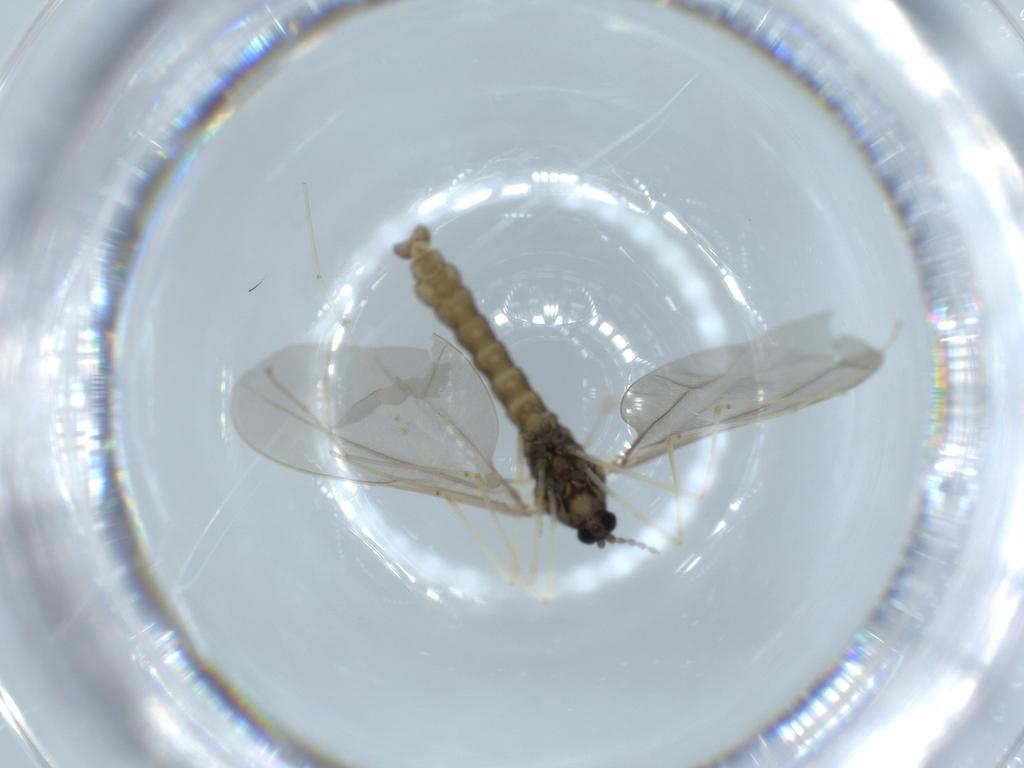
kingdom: Animalia
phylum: Arthropoda
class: Insecta
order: Diptera
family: Cecidomyiidae
